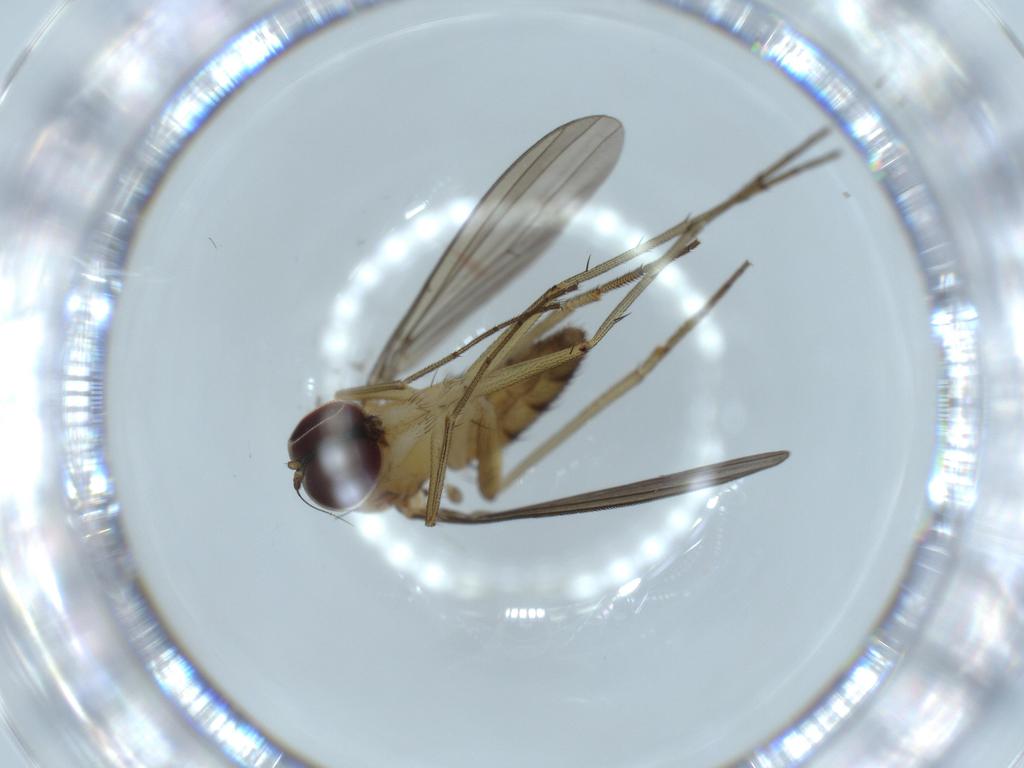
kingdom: Animalia
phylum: Arthropoda
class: Insecta
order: Diptera
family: Dolichopodidae
